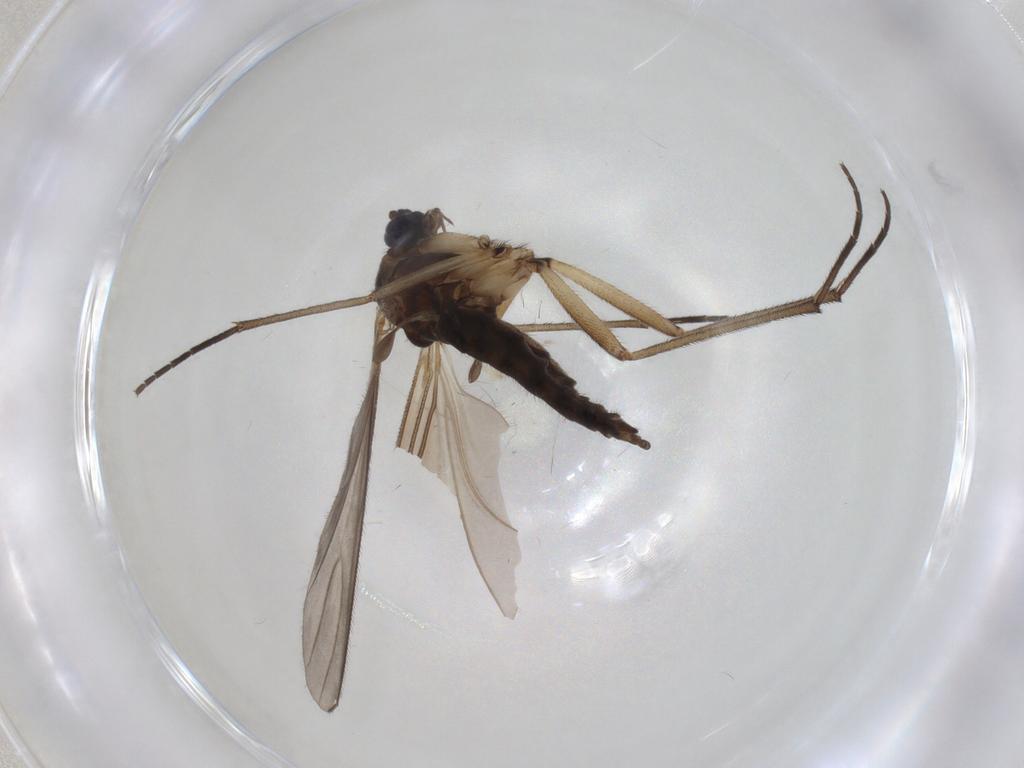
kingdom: Animalia
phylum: Arthropoda
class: Insecta
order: Diptera
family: Sciaridae
